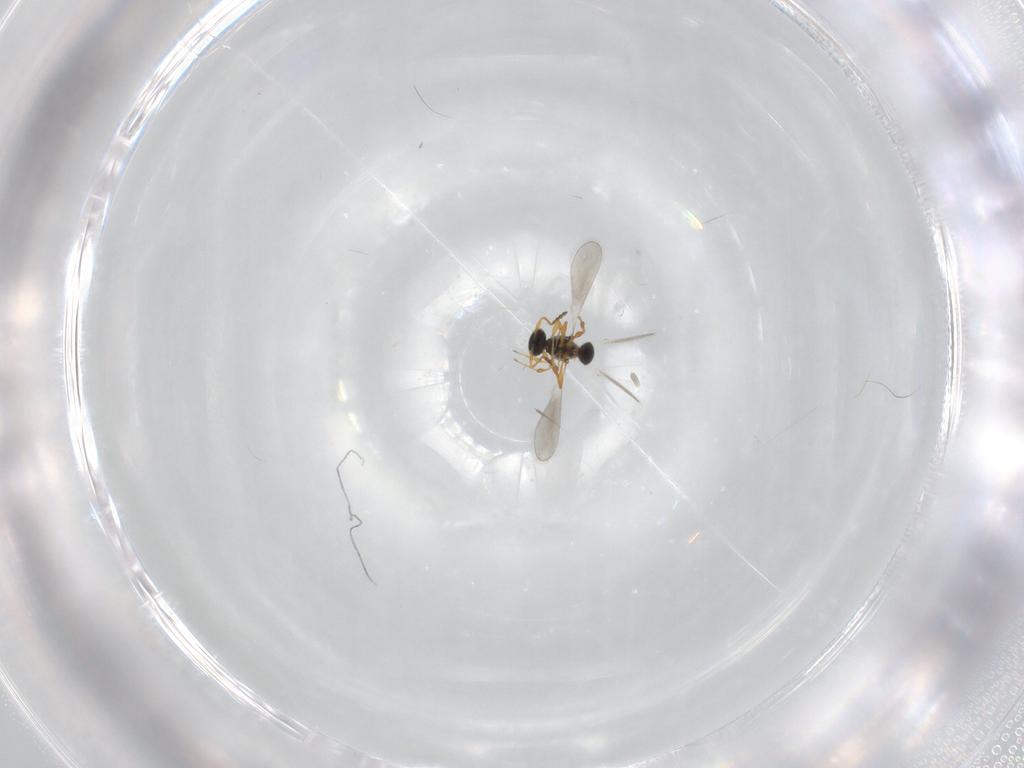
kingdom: Animalia
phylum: Arthropoda
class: Insecta
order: Hymenoptera
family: Platygastridae
